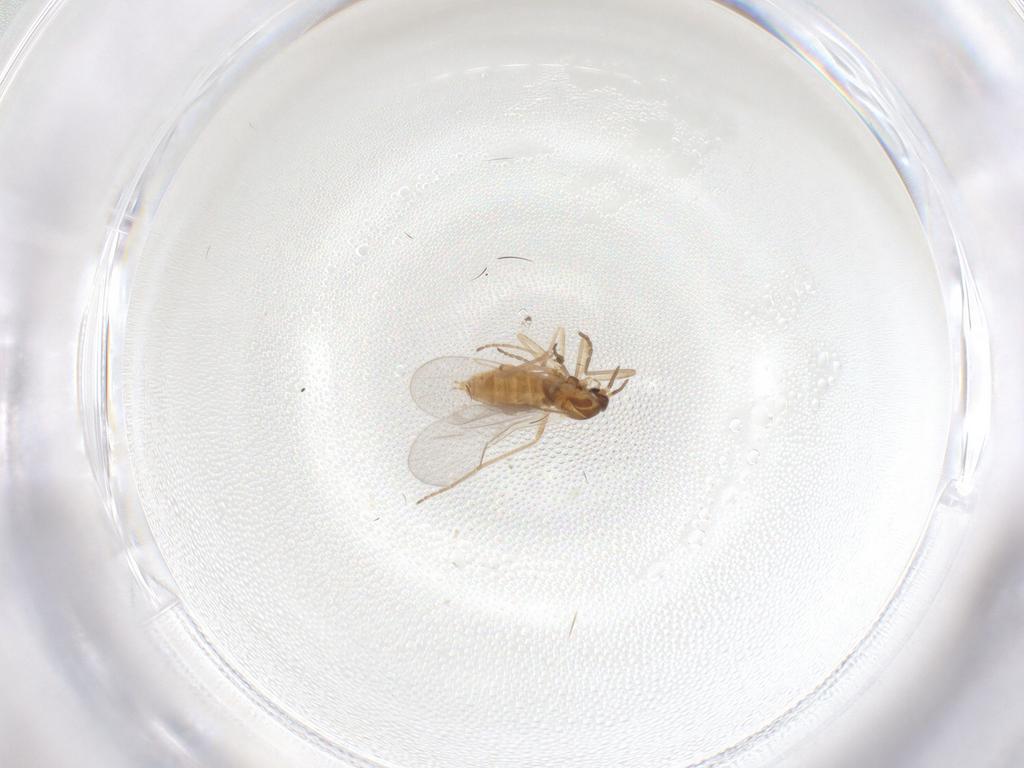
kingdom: Animalia
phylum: Arthropoda
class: Insecta
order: Diptera
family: Cecidomyiidae
